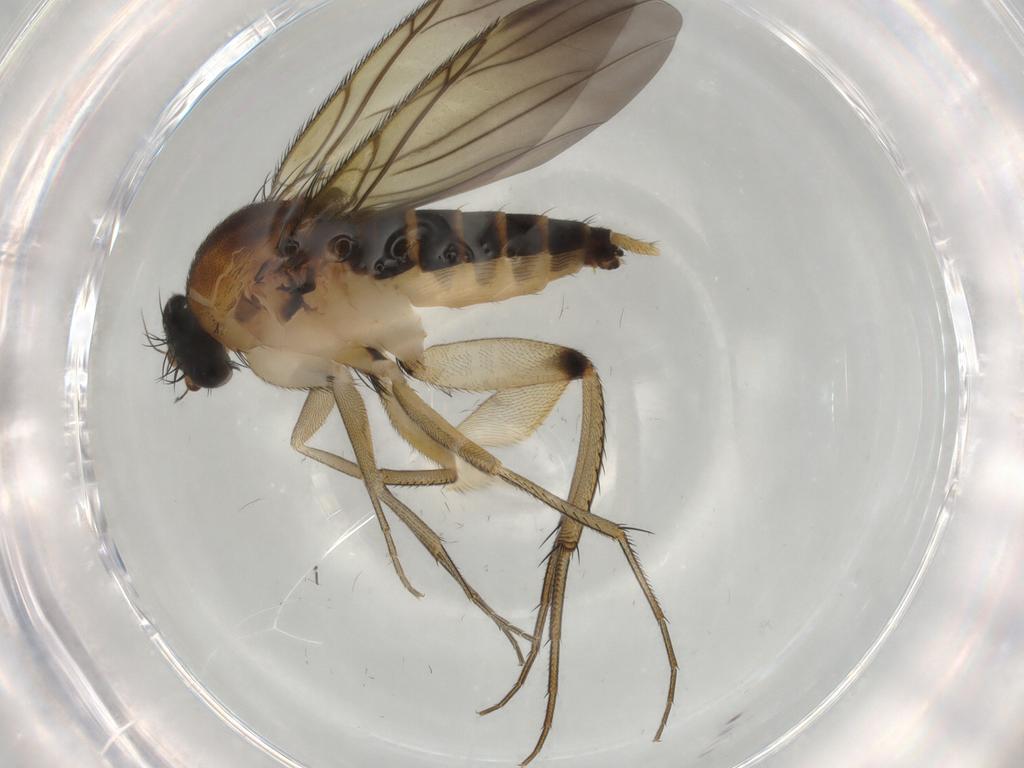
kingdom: Animalia
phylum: Arthropoda
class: Insecta
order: Diptera
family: Phoridae
